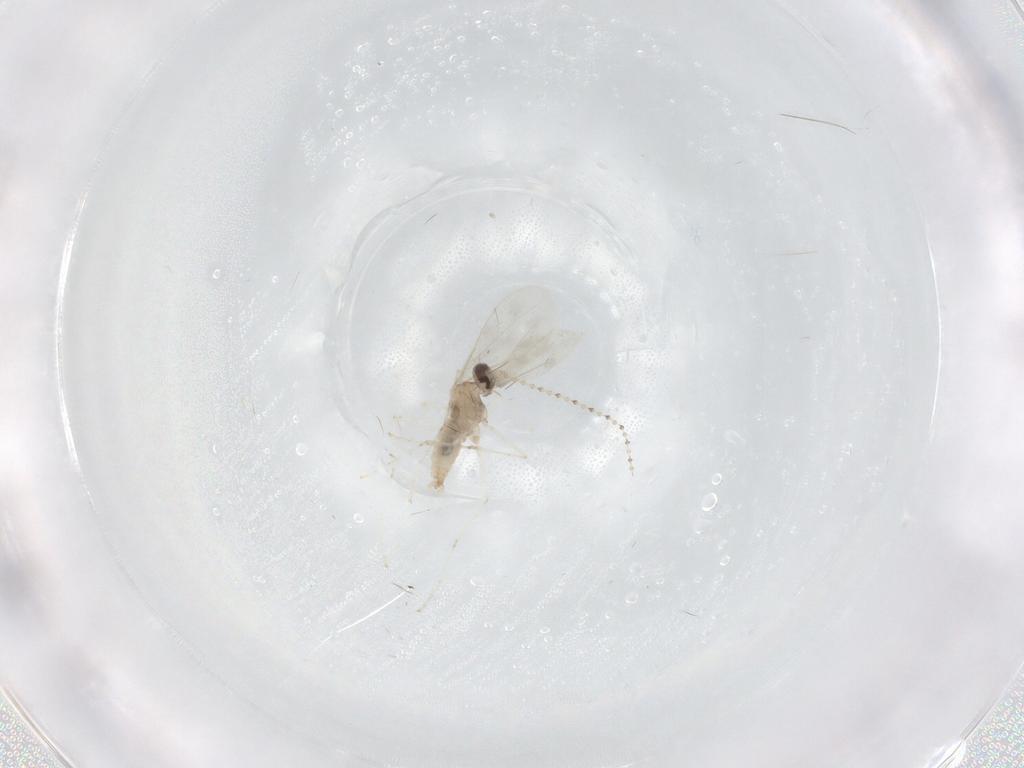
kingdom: Animalia
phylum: Arthropoda
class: Insecta
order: Diptera
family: Cecidomyiidae
